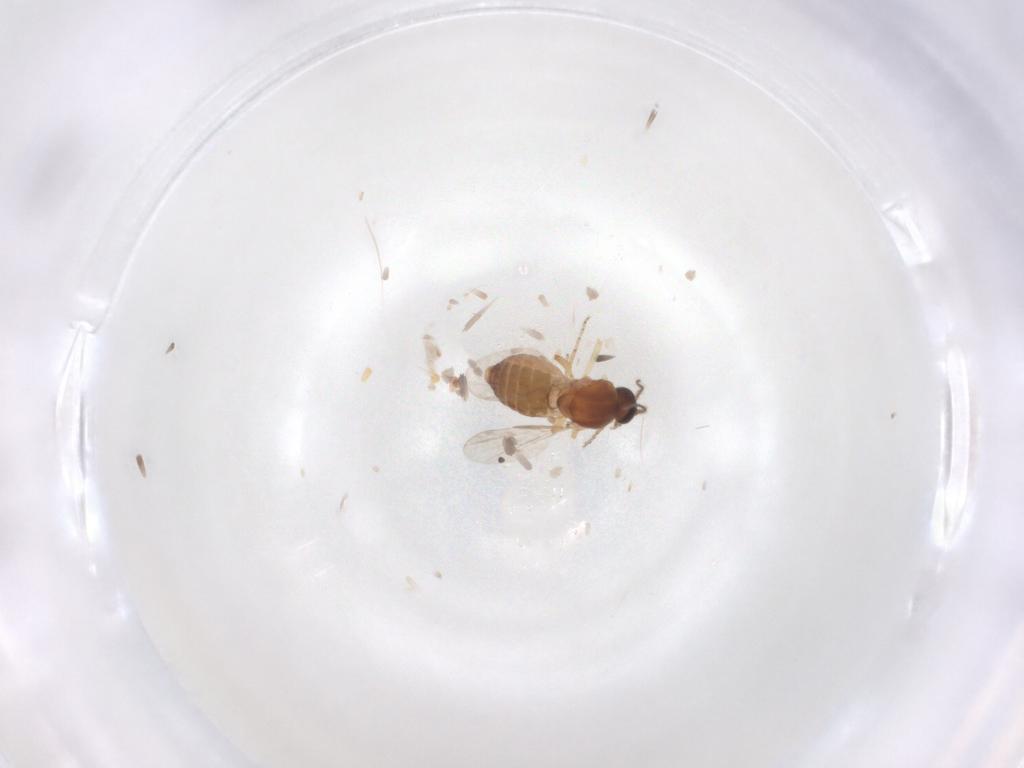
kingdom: Animalia
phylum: Arthropoda
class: Insecta
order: Diptera
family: Ceratopogonidae
